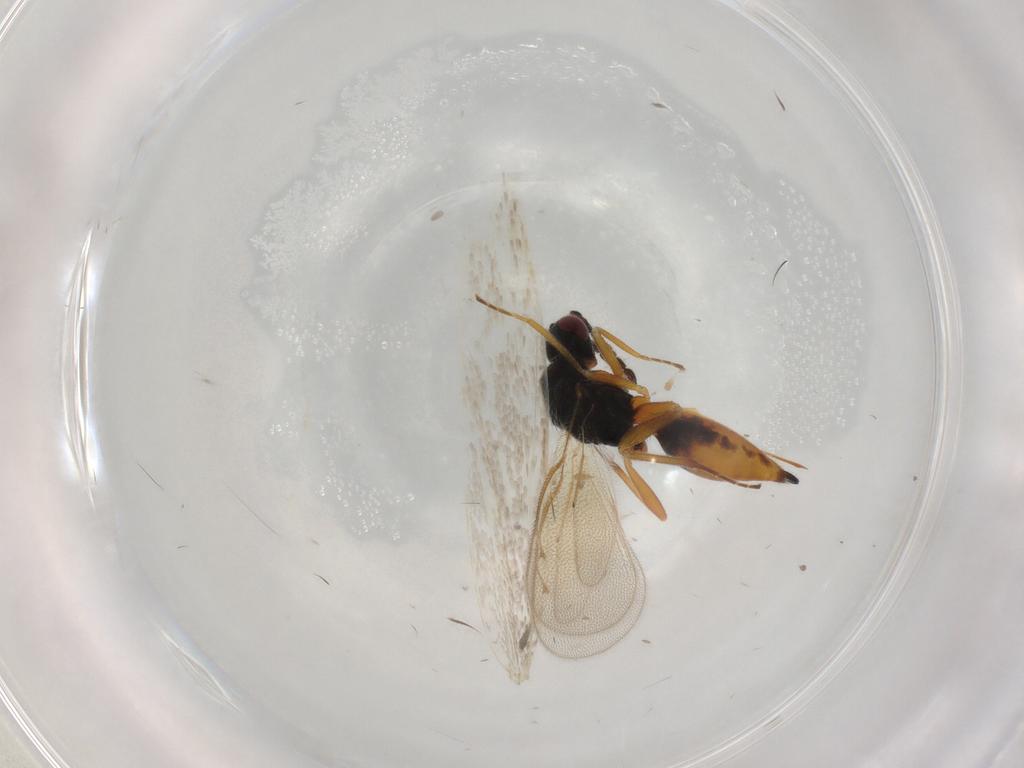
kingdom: Animalia
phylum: Arthropoda
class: Insecta
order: Hymenoptera
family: Eulophidae
